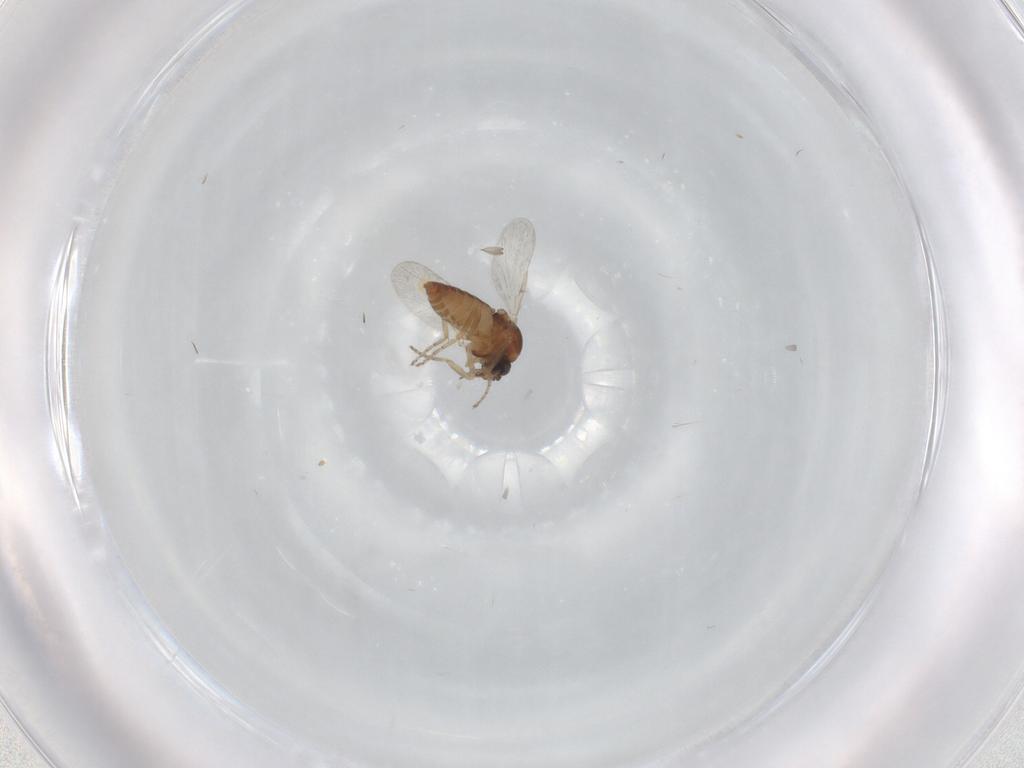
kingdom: Animalia
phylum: Arthropoda
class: Insecta
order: Diptera
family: Ceratopogonidae
